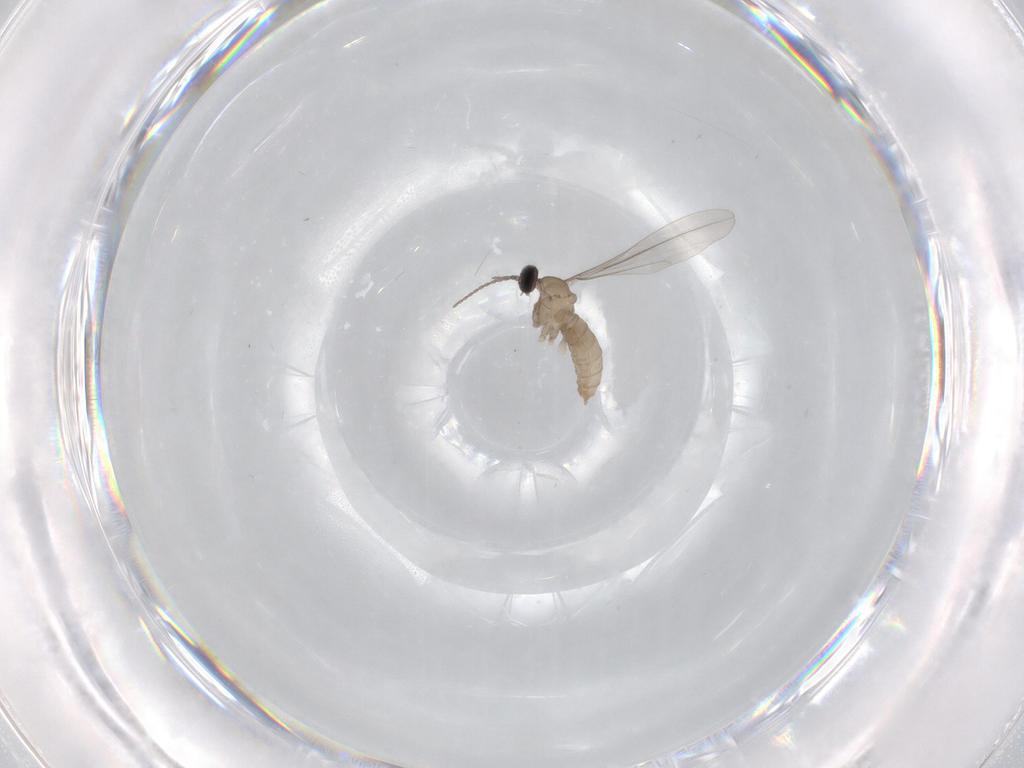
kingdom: Animalia
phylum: Arthropoda
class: Insecta
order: Diptera
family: Cecidomyiidae
